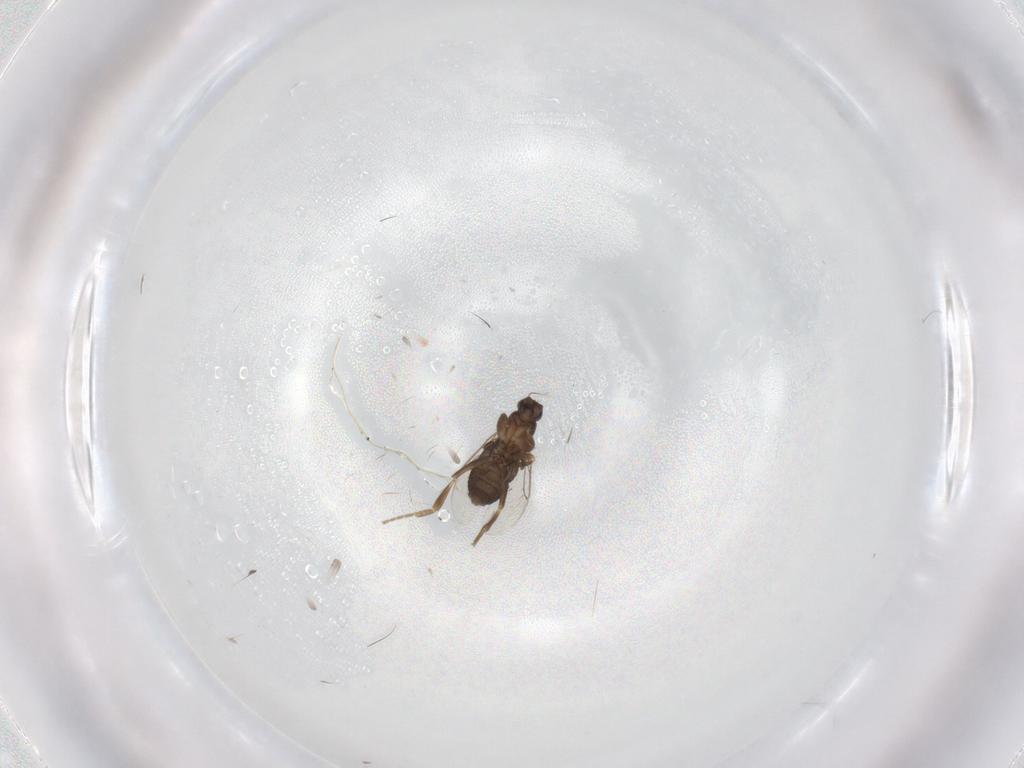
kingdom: Animalia
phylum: Arthropoda
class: Insecta
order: Diptera
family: Phoridae
